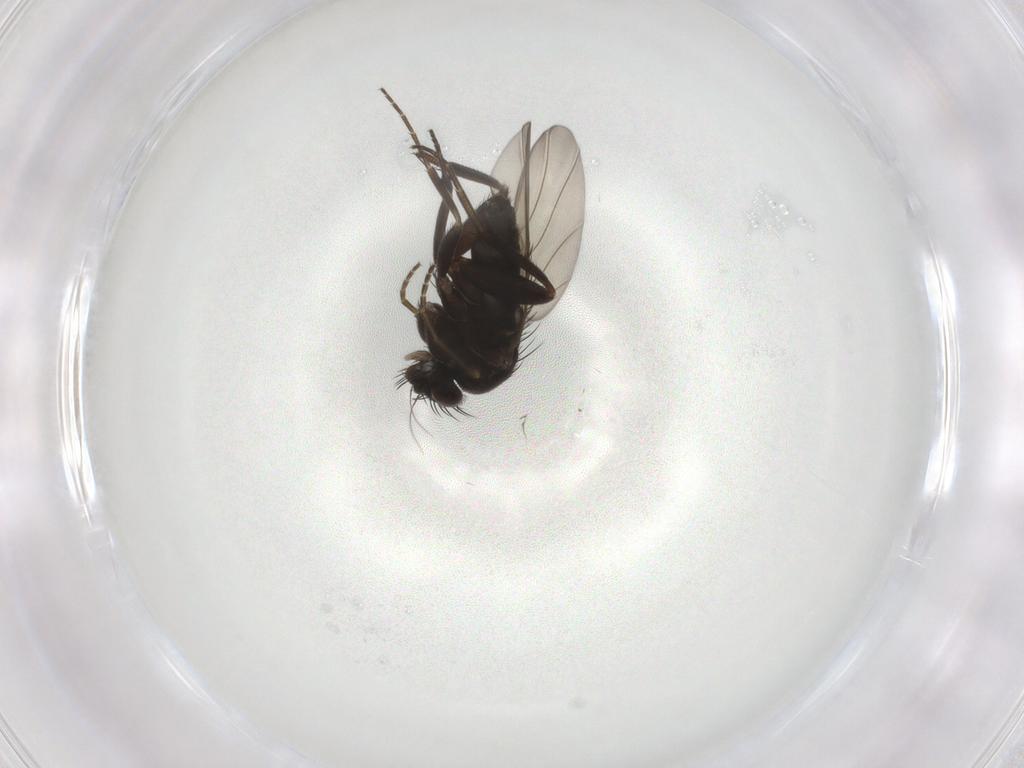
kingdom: Animalia
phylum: Arthropoda
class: Insecta
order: Diptera
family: Phoridae
